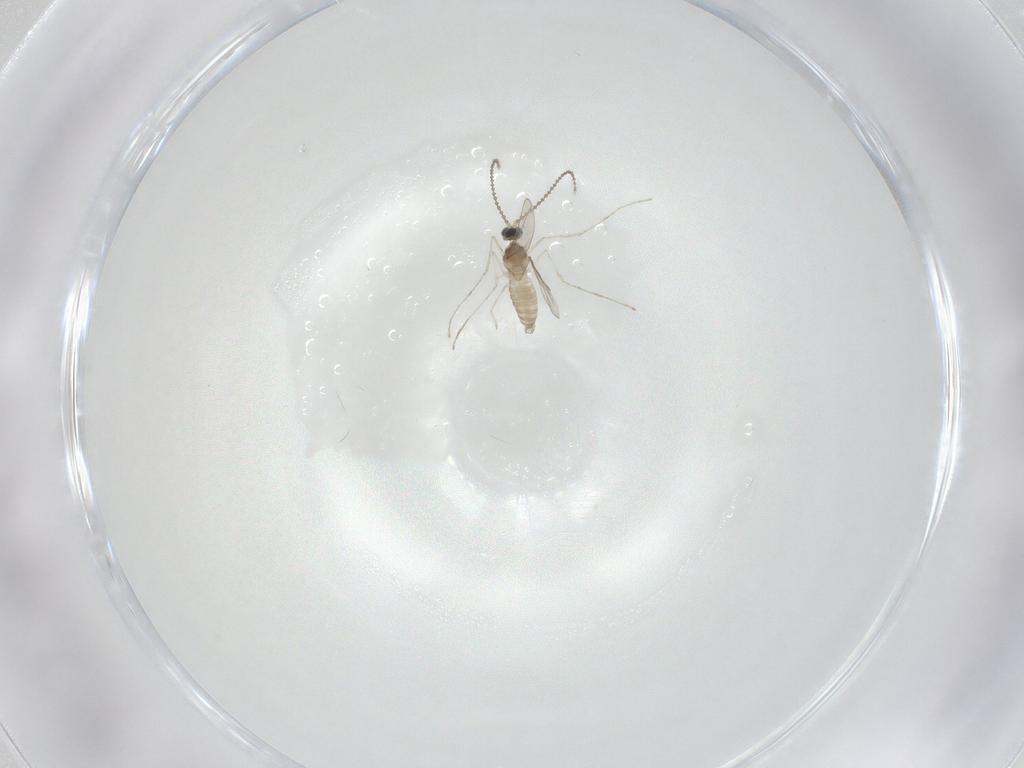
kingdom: Animalia
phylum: Arthropoda
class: Insecta
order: Diptera
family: Cecidomyiidae
